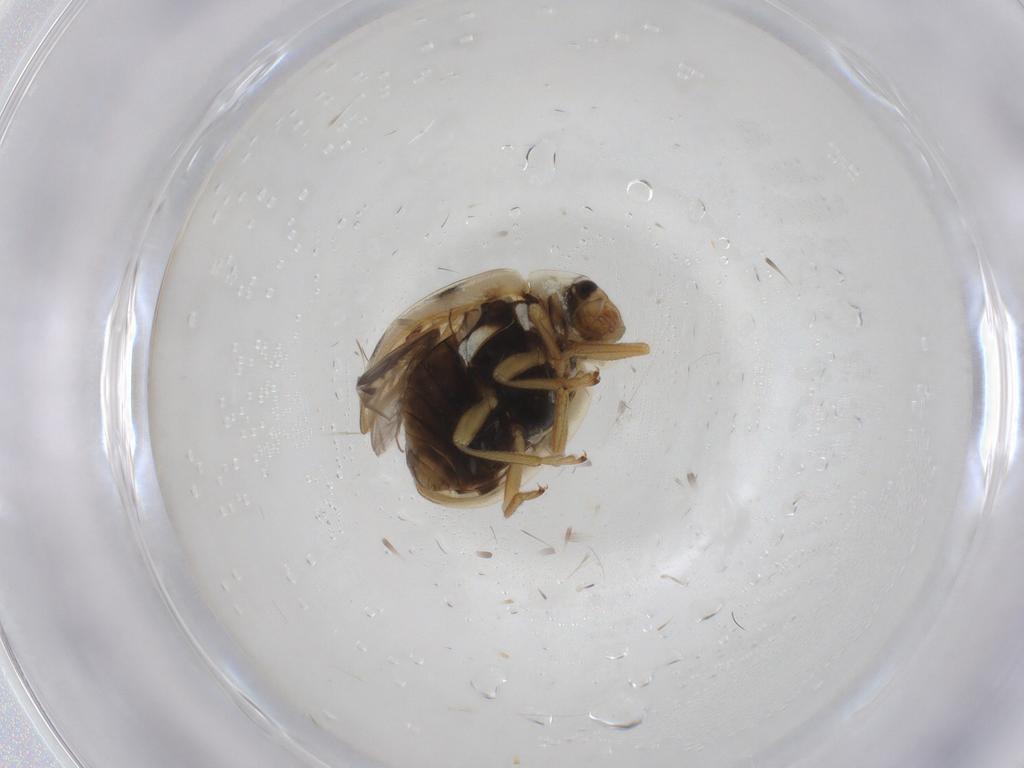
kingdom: Animalia
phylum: Arthropoda
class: Insecta
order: Coleoptera
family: Coccinellidae
